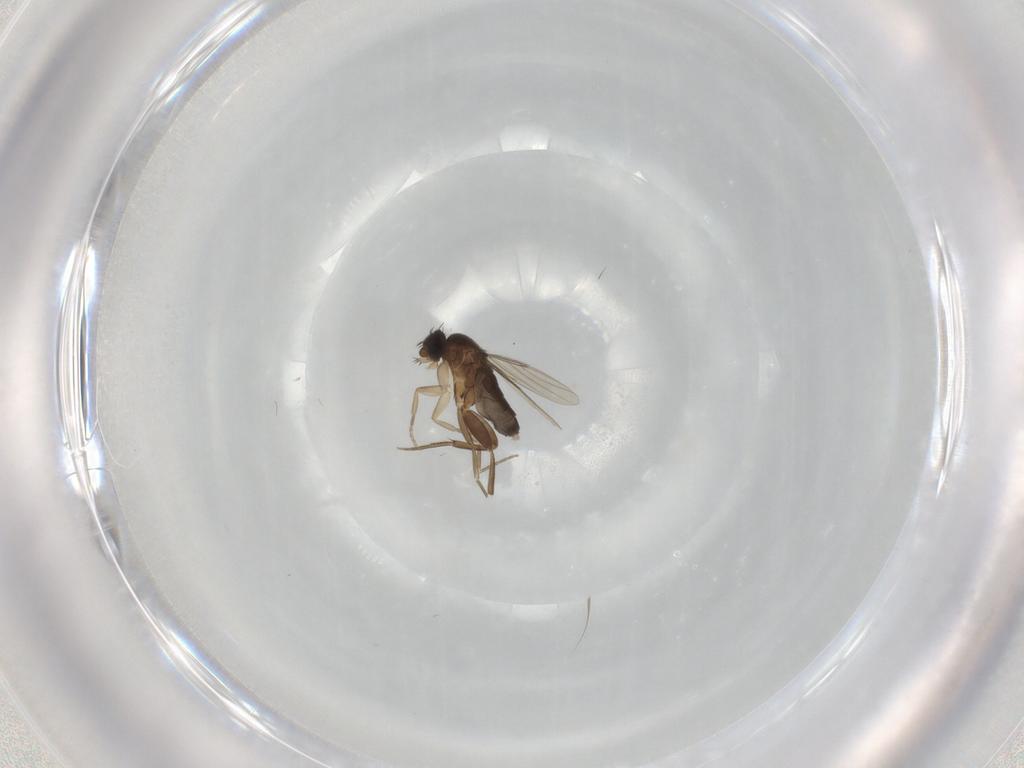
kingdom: Animalia
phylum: Arthropoda
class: Insecta
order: Diptera
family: Phoridae
